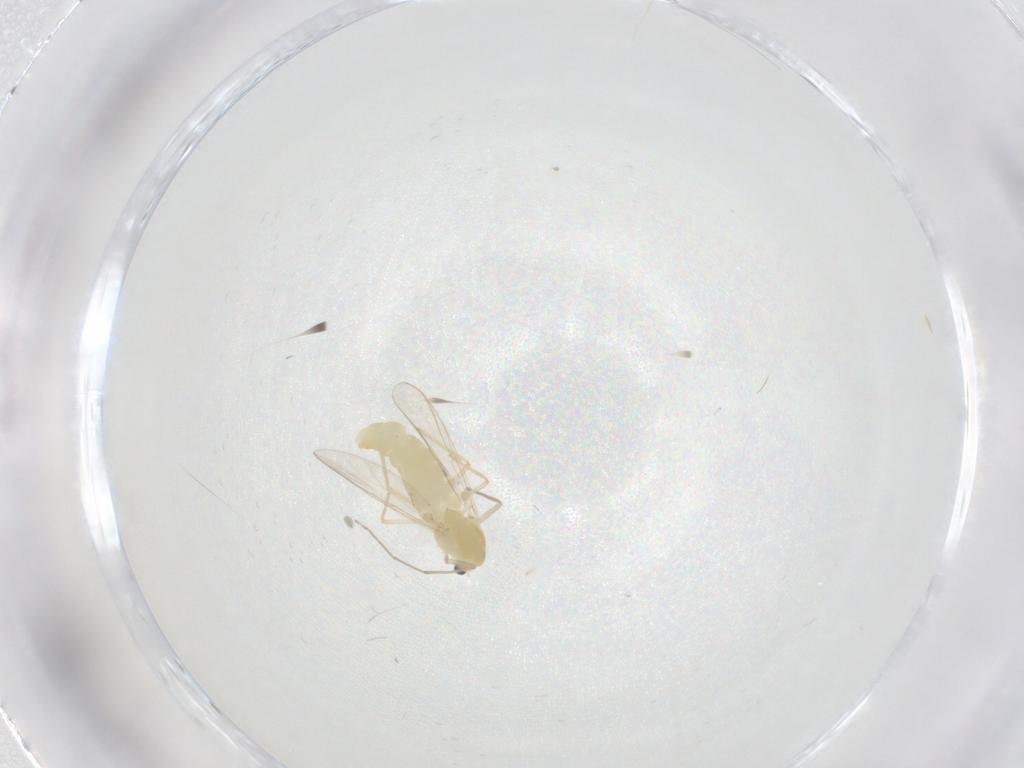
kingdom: Animalia
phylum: Arthropoda
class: Insecta
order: Diptera
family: Chironomidae
